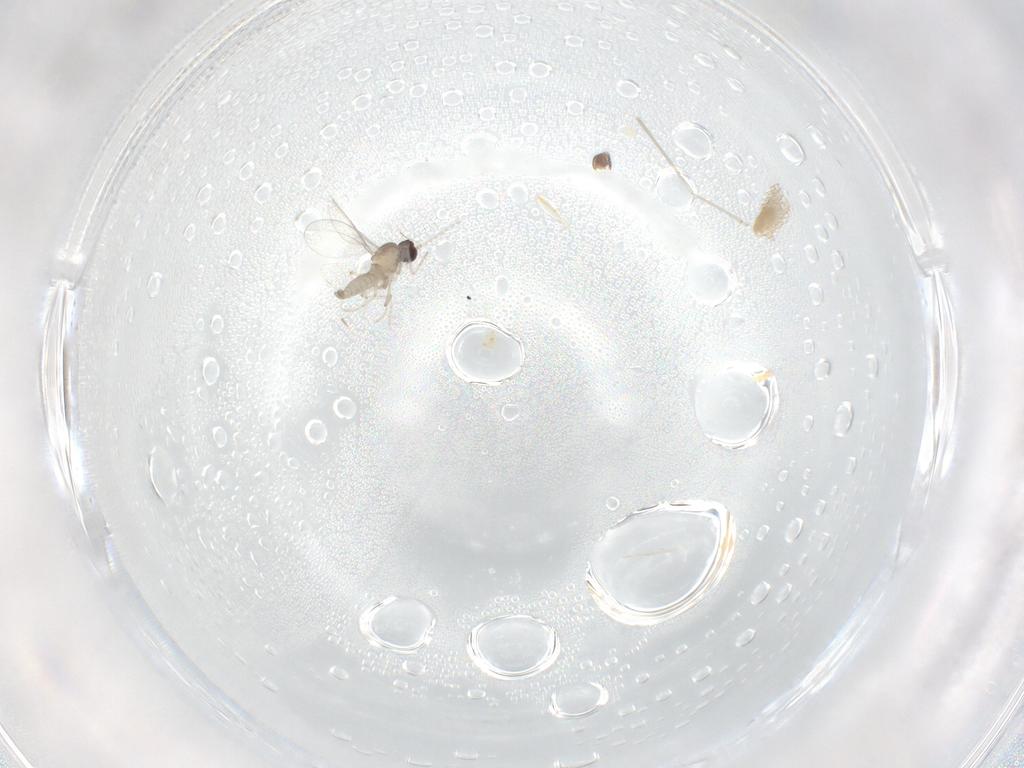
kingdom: Animalia
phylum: Arthropoda
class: Insecta
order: Diptera
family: Cecidomyiidae
